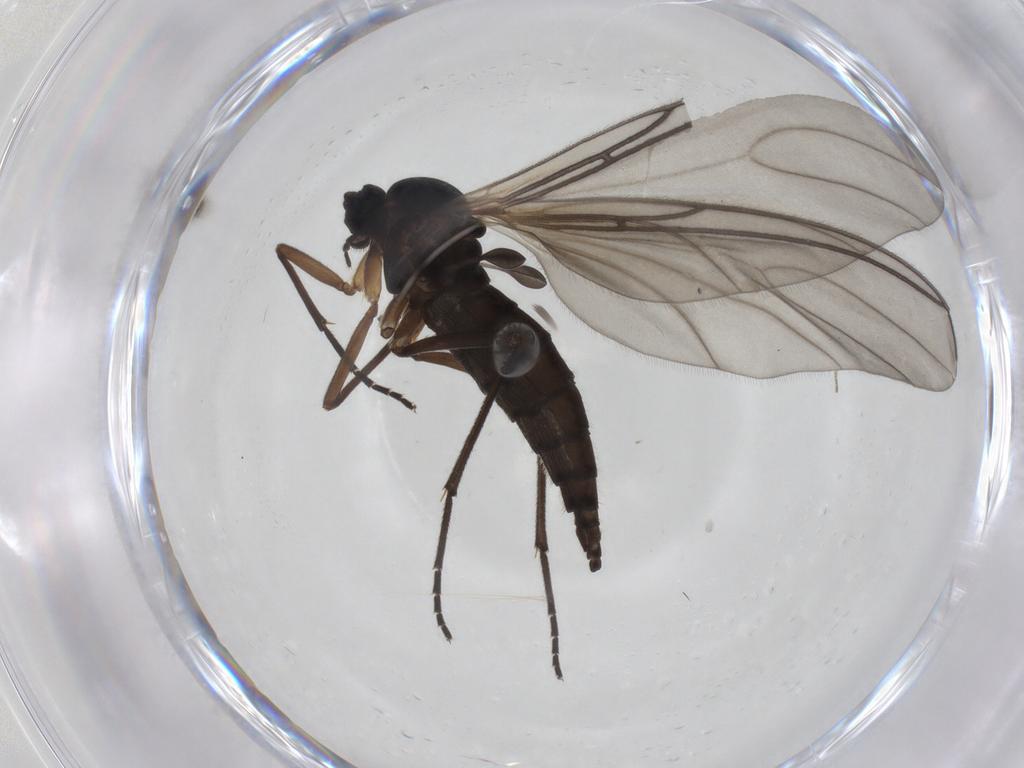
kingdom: Animalia
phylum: Arthropoda
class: Insecta
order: Diptera
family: Sciaridae
